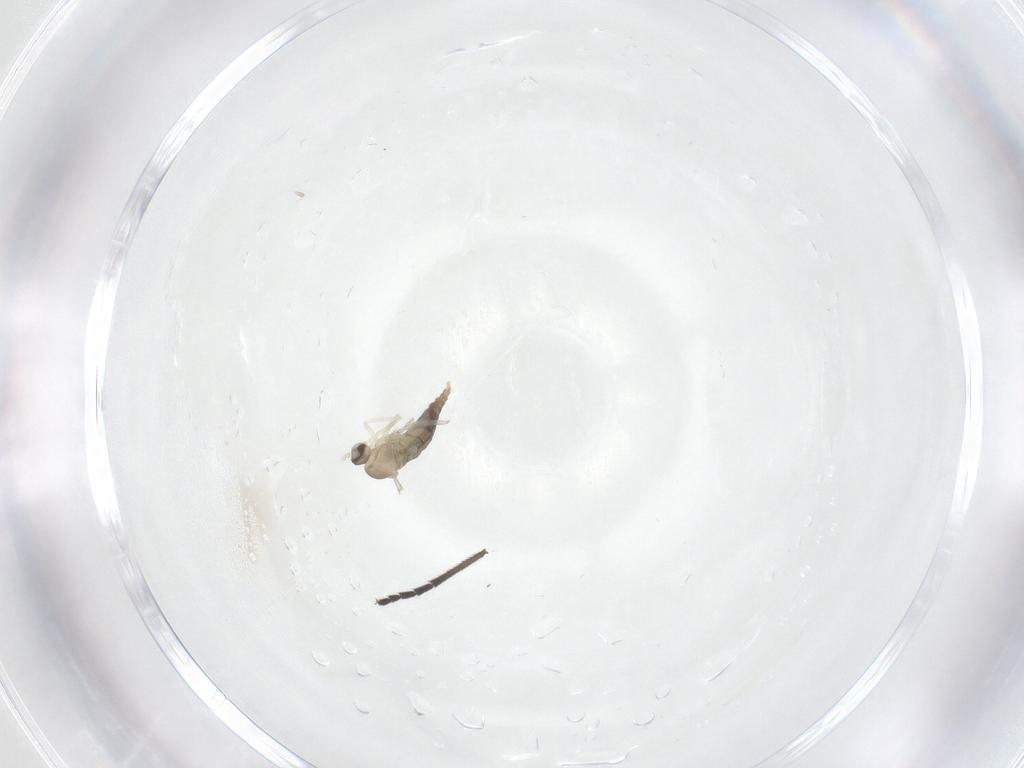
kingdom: Animalia
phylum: Arthropoda
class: Insecta
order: Diptera
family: Cecidomyiidae
